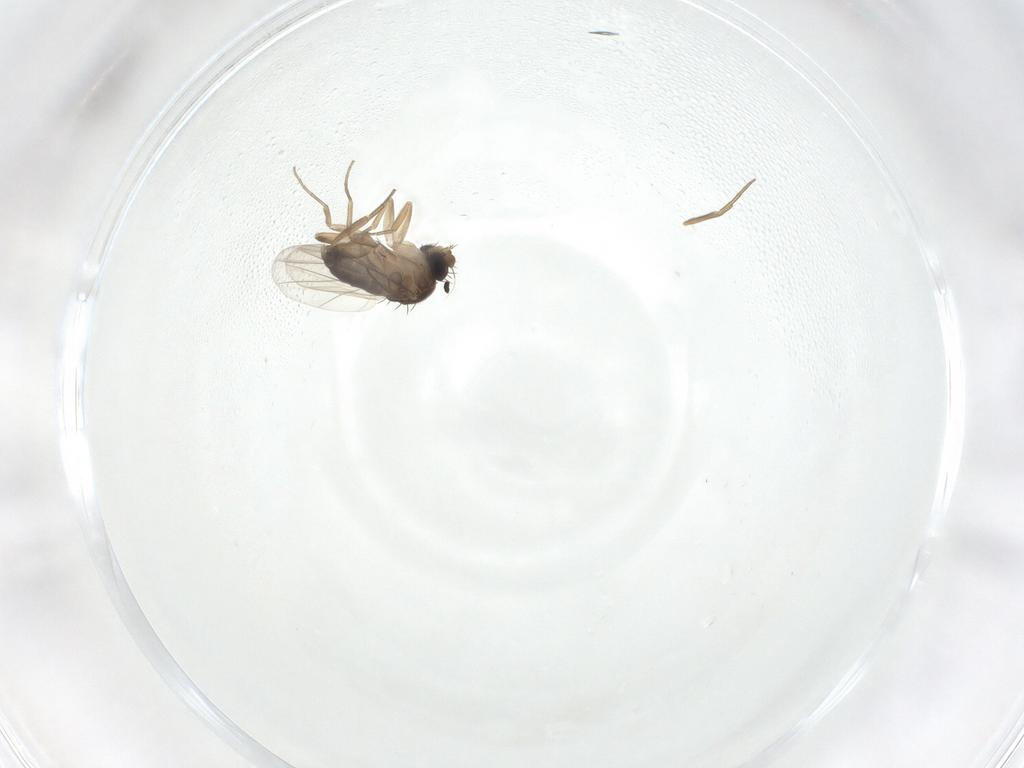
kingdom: Animalia
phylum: Arthropoda
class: Insecta
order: Diptera
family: Phoridae
